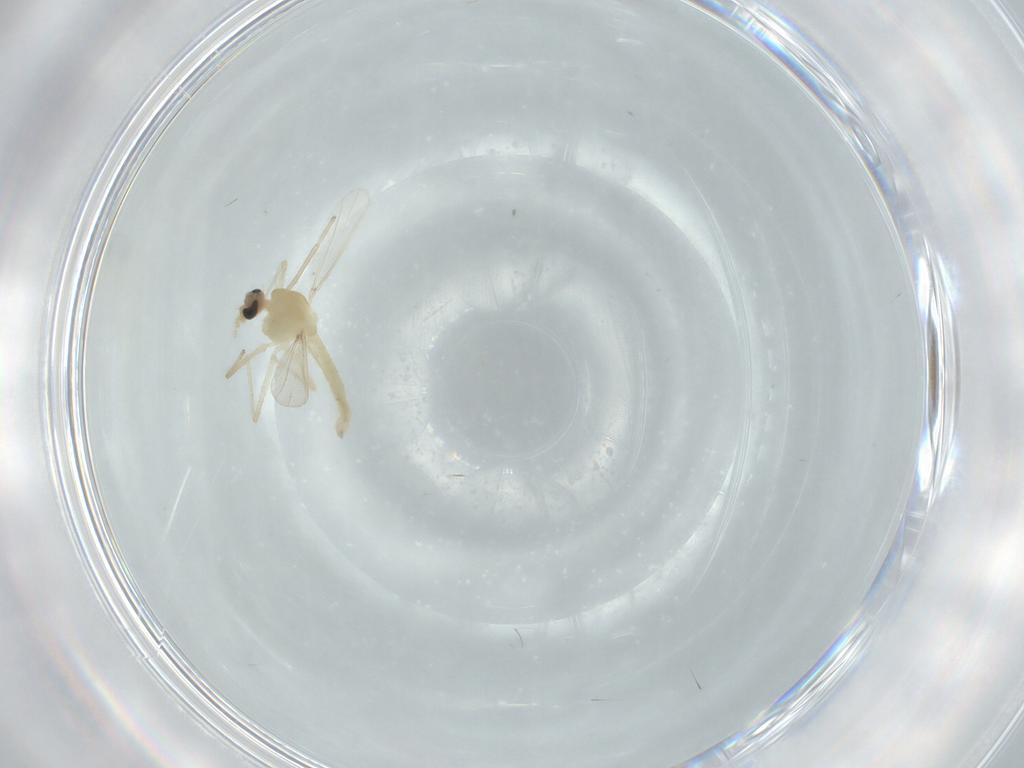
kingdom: Animalia
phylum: Arthropoda
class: Insecta
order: Diptera
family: Chironomidae
